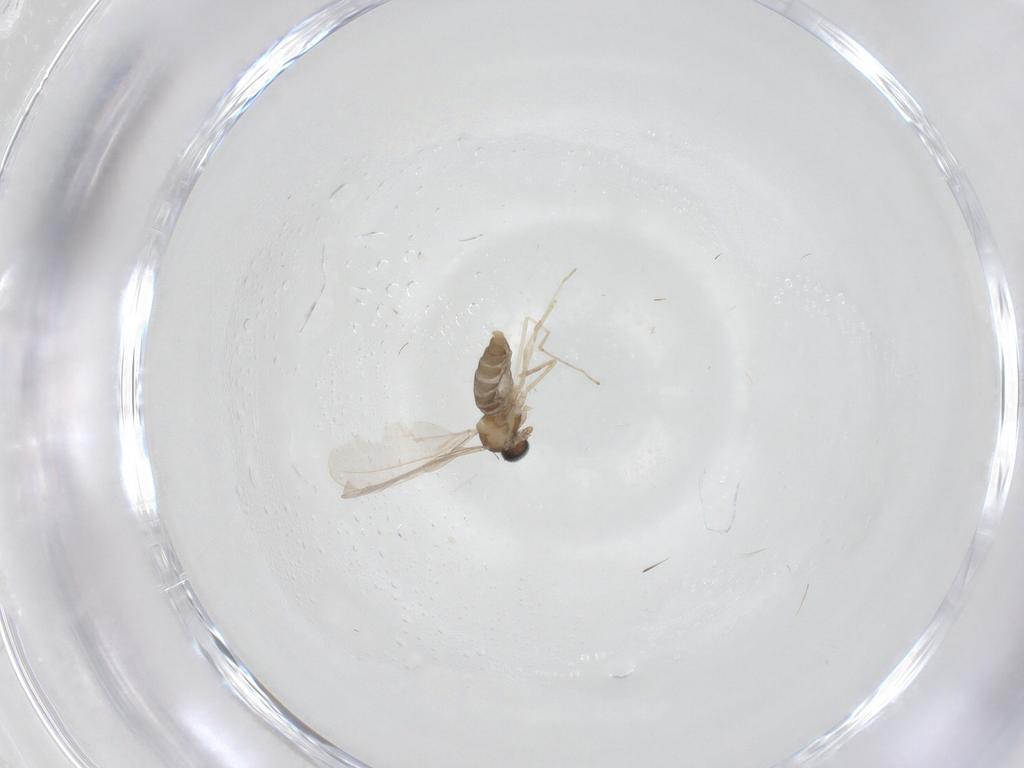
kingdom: Animalia
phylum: Arthropoda
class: Insecta
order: Diptera
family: Cecidomyiidae
